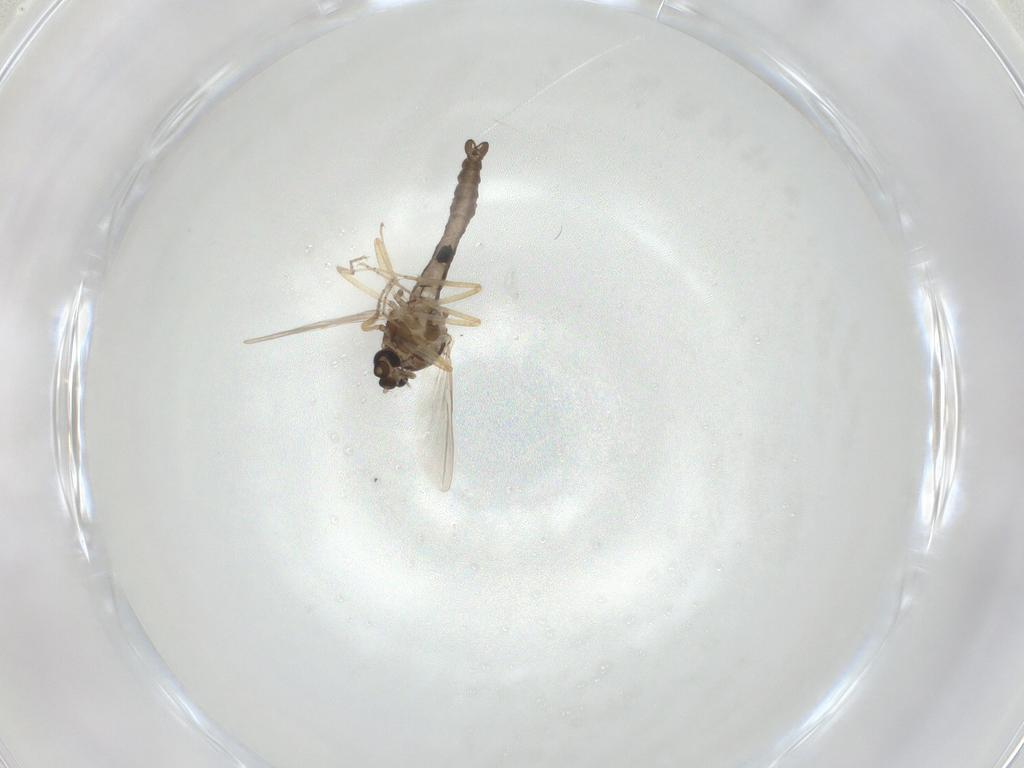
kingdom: Animalia
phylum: Arthropoda
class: Insecta
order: Diptera
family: Ceratopogonidae
